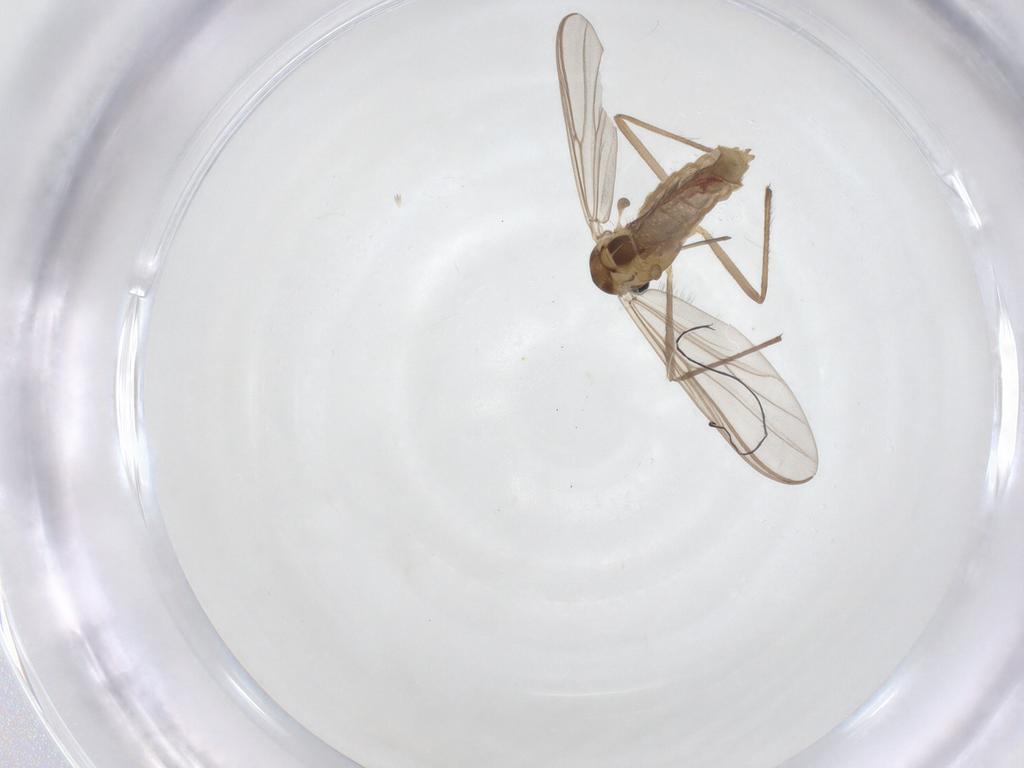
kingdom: Animalia
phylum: Arthropoda
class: Insecta
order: Diptera
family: Chironomidae
